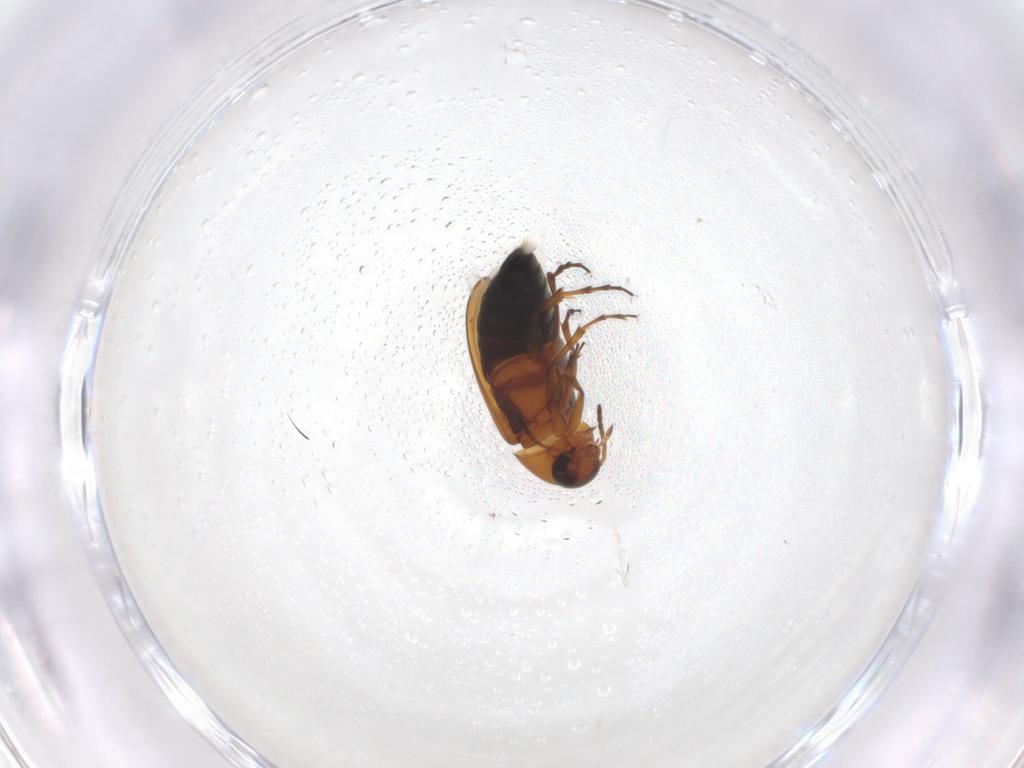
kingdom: Animalia
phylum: Arthropoda
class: Insecta
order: Coleoptera
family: Scraptiidae
